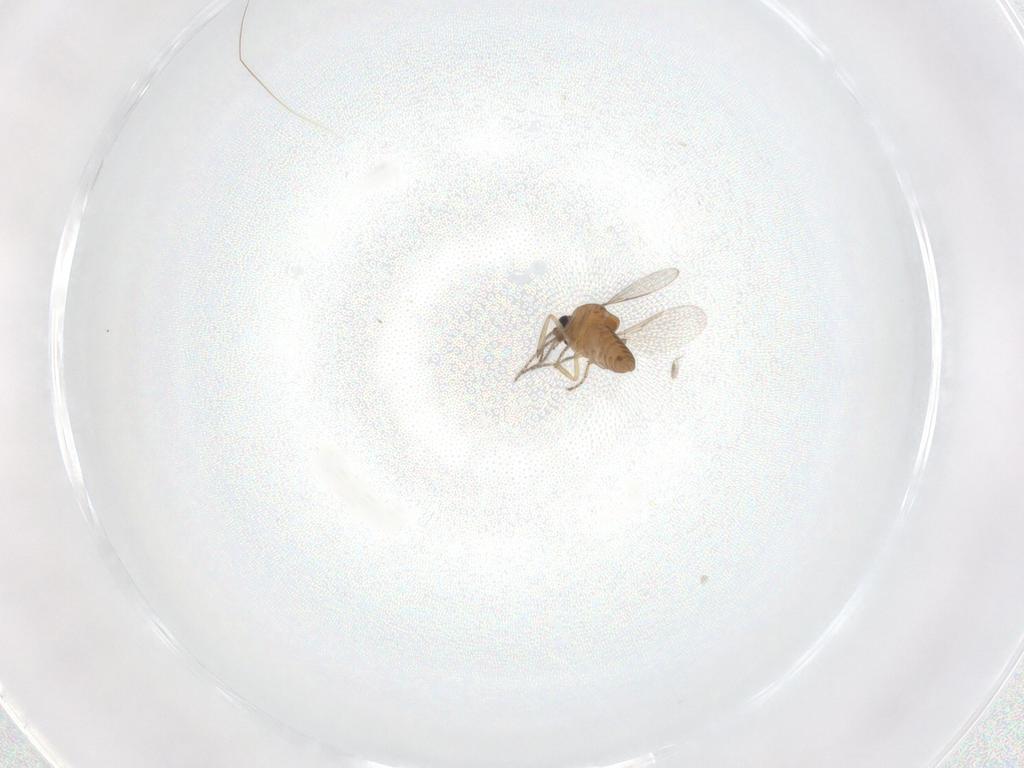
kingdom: Animalia
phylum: Arthropoda
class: Insecta
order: Diptera
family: Ceratopogonidae
